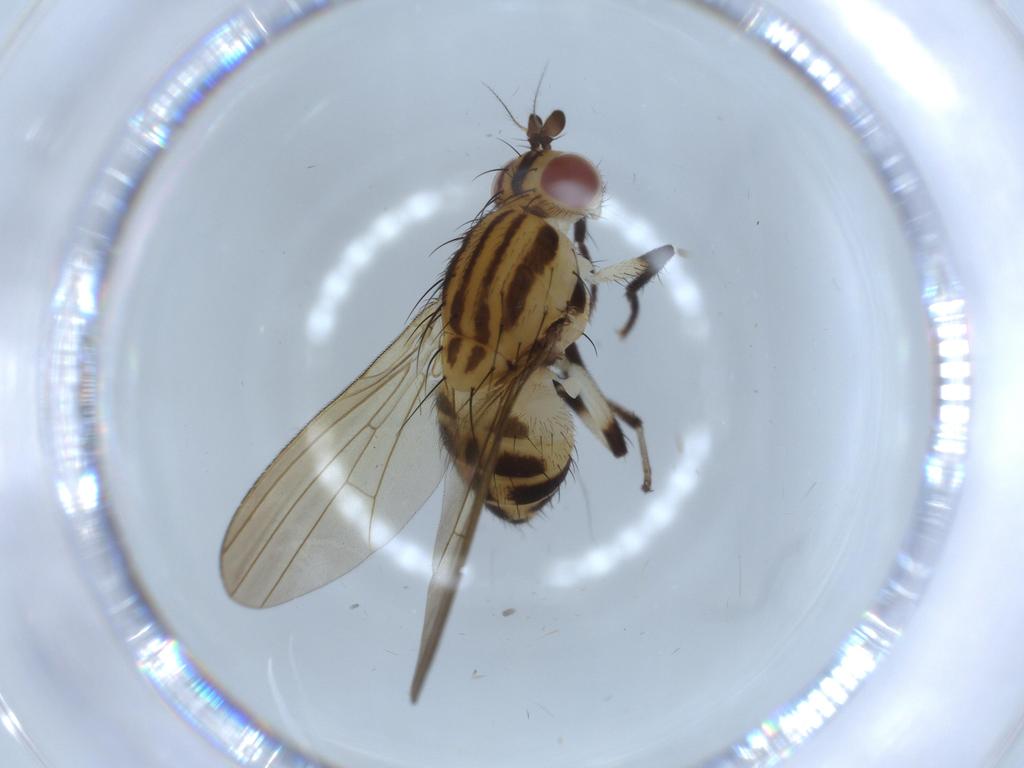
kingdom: Animalia
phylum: Arthropoda
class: Insecta
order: Diptera
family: Lauxaniidae
